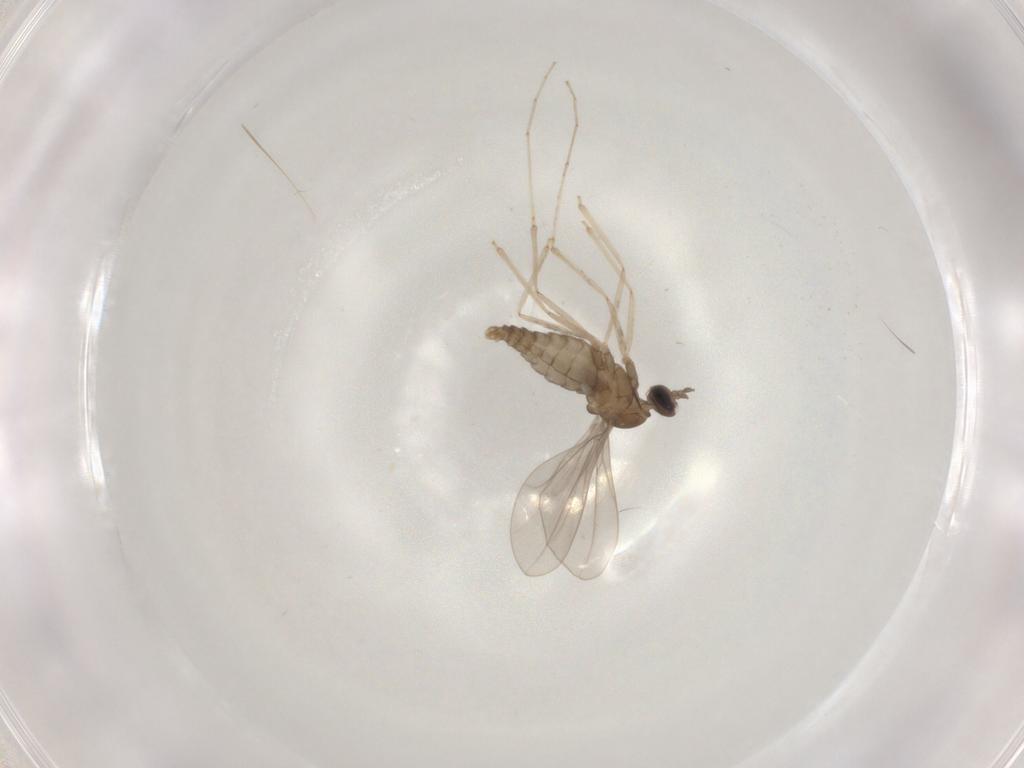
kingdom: Animalia
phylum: Arthropoda
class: Insecta
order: Diptera
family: Cecidomyiidae
